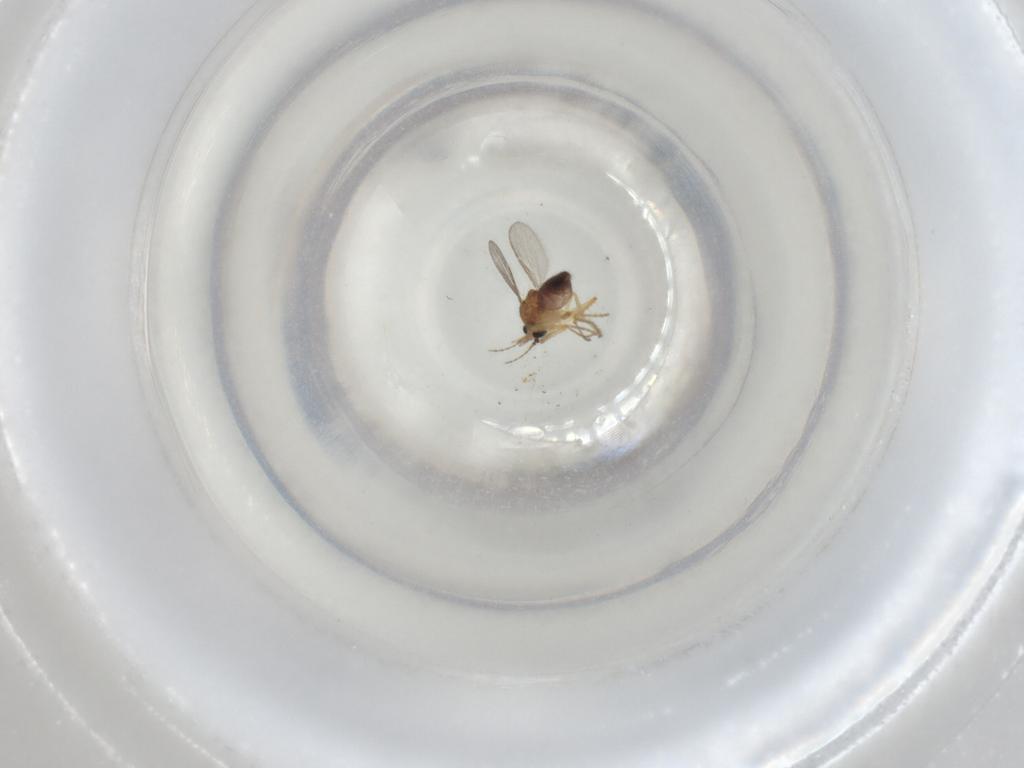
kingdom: Animalia
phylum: Arthropoda
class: Insecta
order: Diptera
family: Ceratopogonidae
